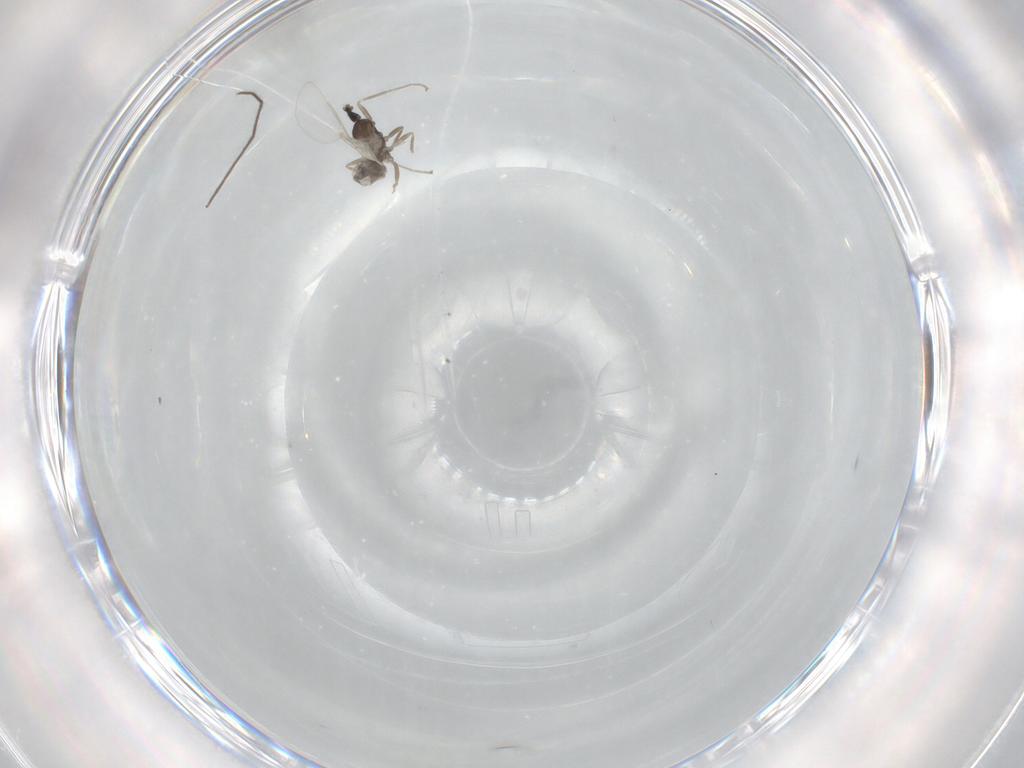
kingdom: Animalia
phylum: Arthropoda
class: Insecta
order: Diptera
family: Cecidomyiidae
